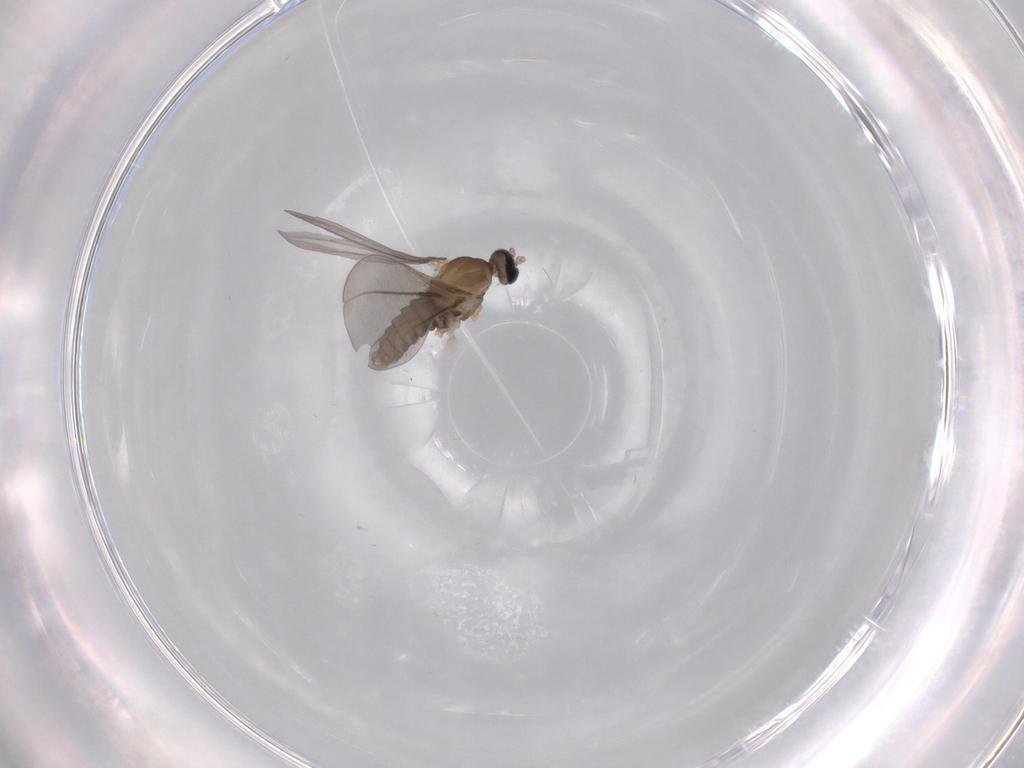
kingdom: Animalia
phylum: Arthropoda
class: Insecta
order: Diptera
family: Cecidomyiidae
